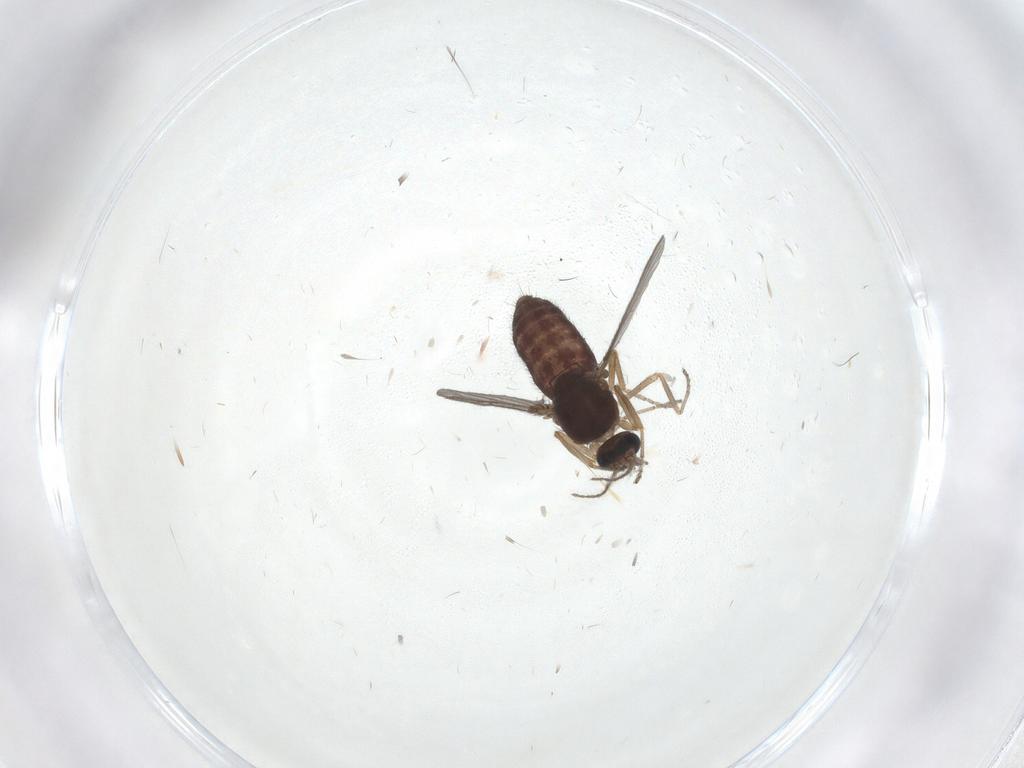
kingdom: Animalia
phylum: Arthropoda
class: Insecta
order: Diptera
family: Ceratopogonidae
